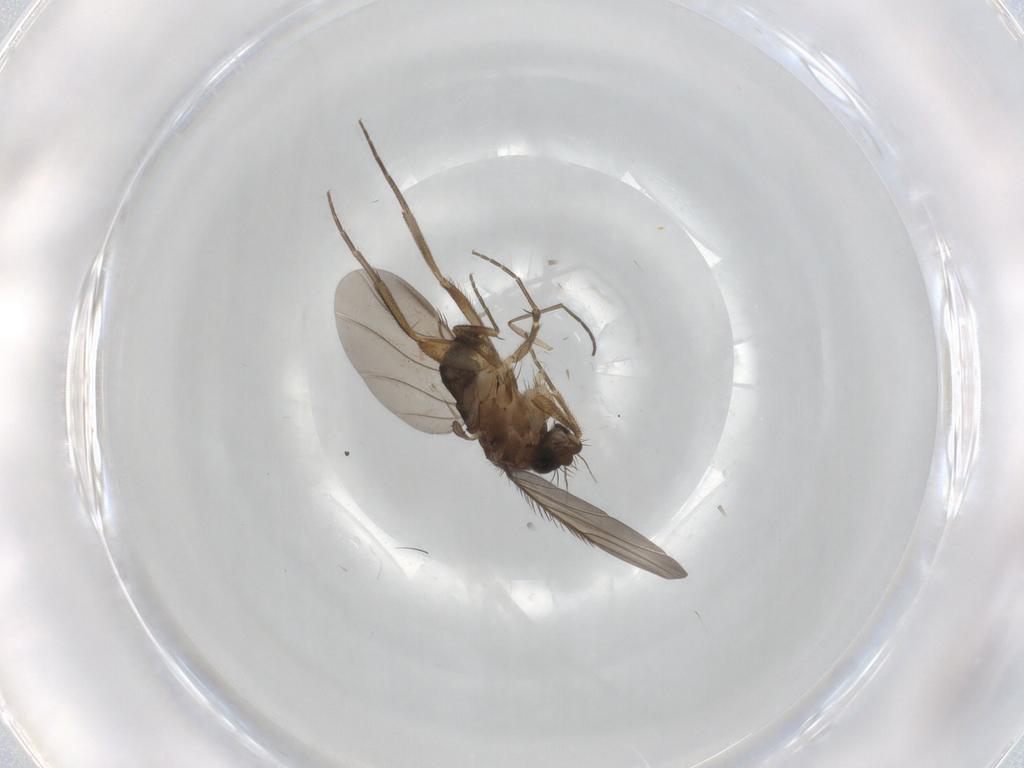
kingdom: Animalia
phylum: Arthropoda
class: Insecta
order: Diptera
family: Phoridae
